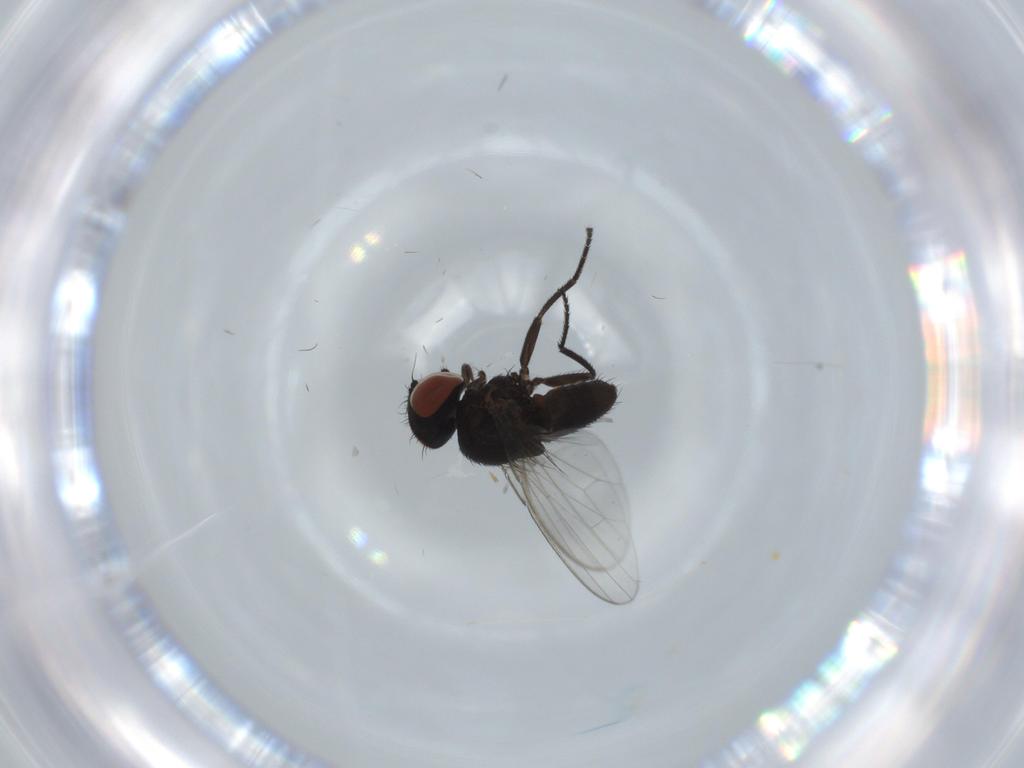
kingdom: Animalia
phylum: Arthropoda
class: Insecta
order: Diptera
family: Milichiidae
